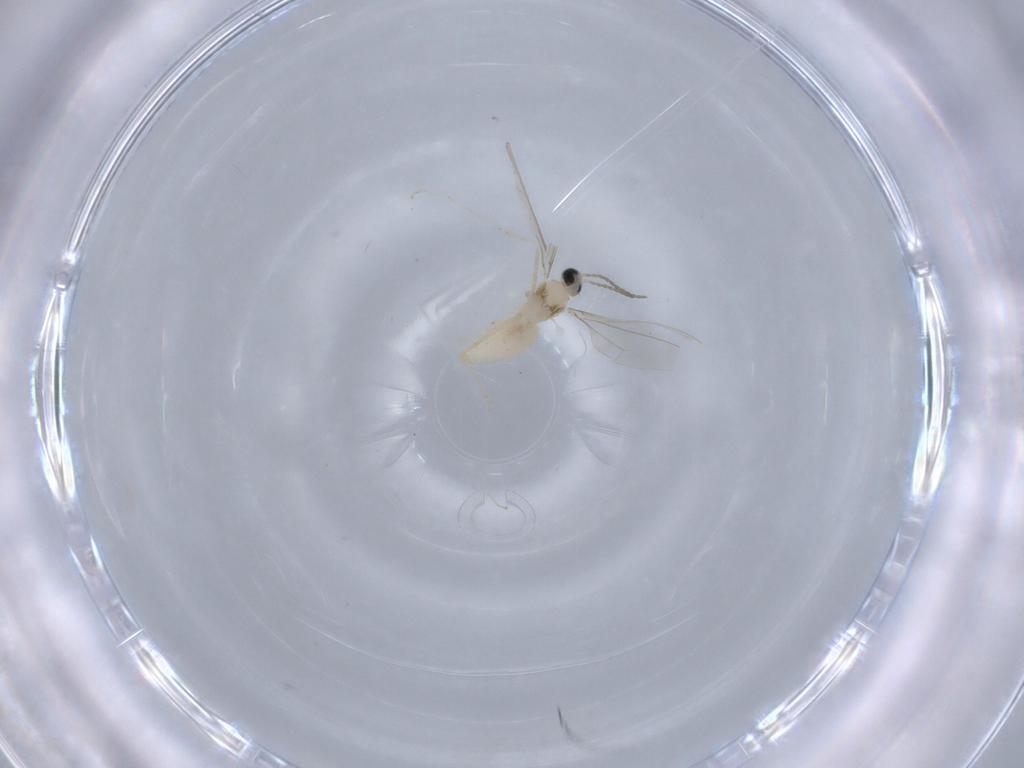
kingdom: Animalia
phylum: Arthropoda
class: Insecta
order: Diptera
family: Cecidomyiidae
